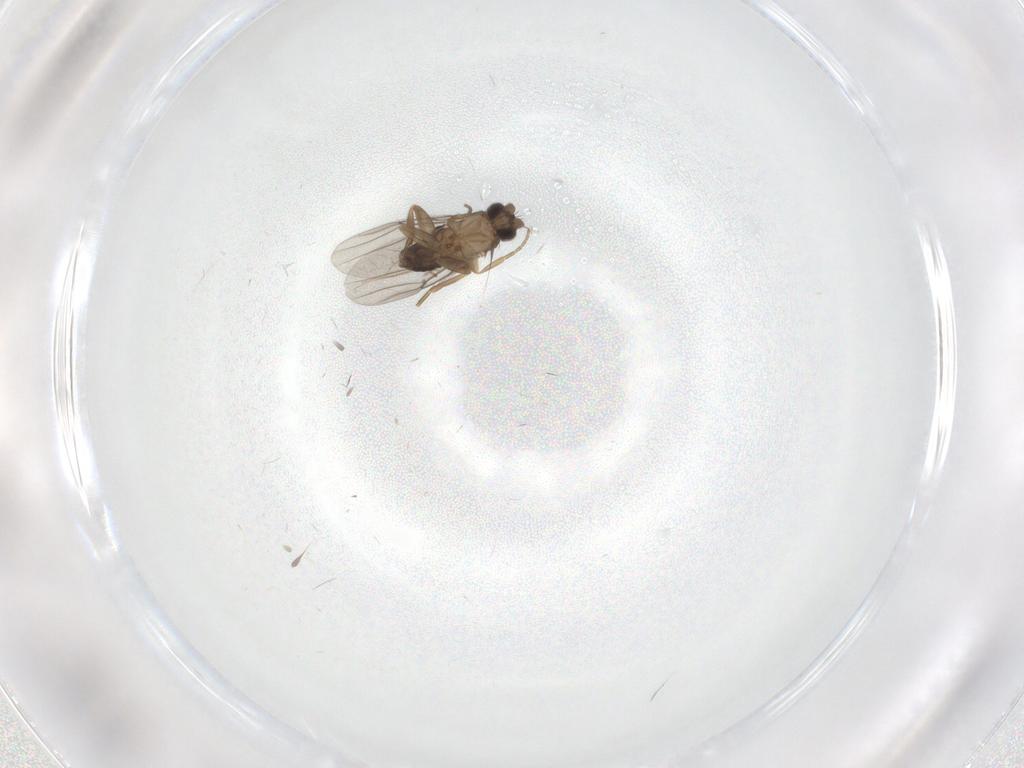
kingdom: Animalia
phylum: Arthropoda
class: Insecta
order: Diptera
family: Phoridae
